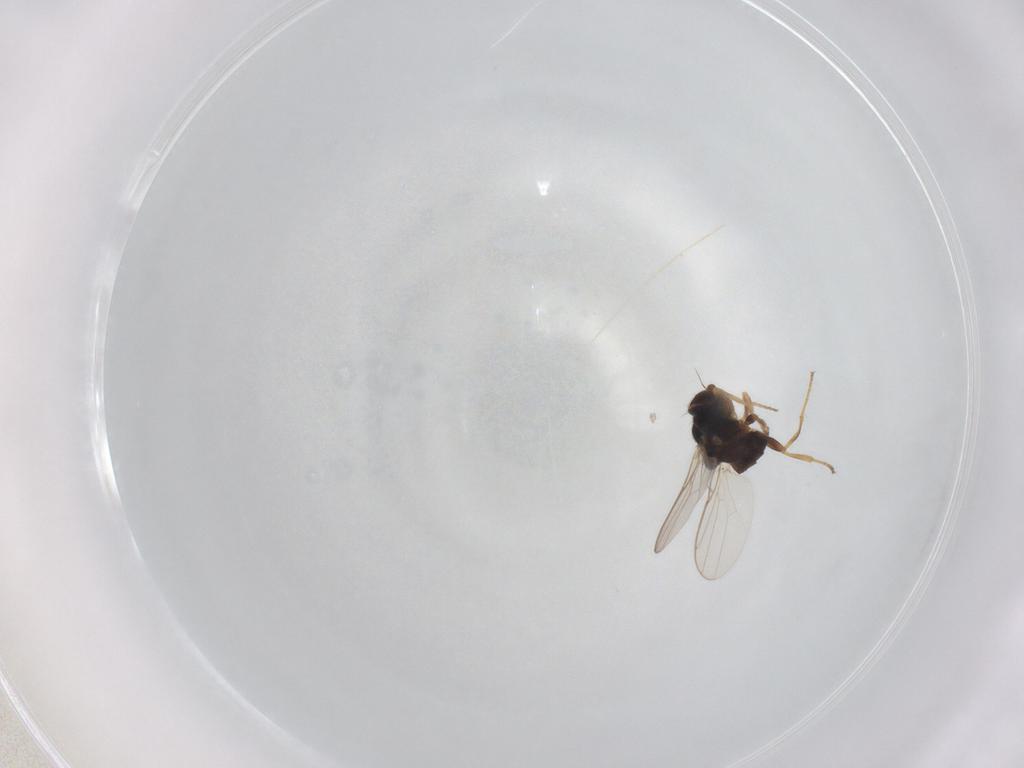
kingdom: Animalia
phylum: Arthropoda
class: Insecta
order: Diptera
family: Chloropidae
